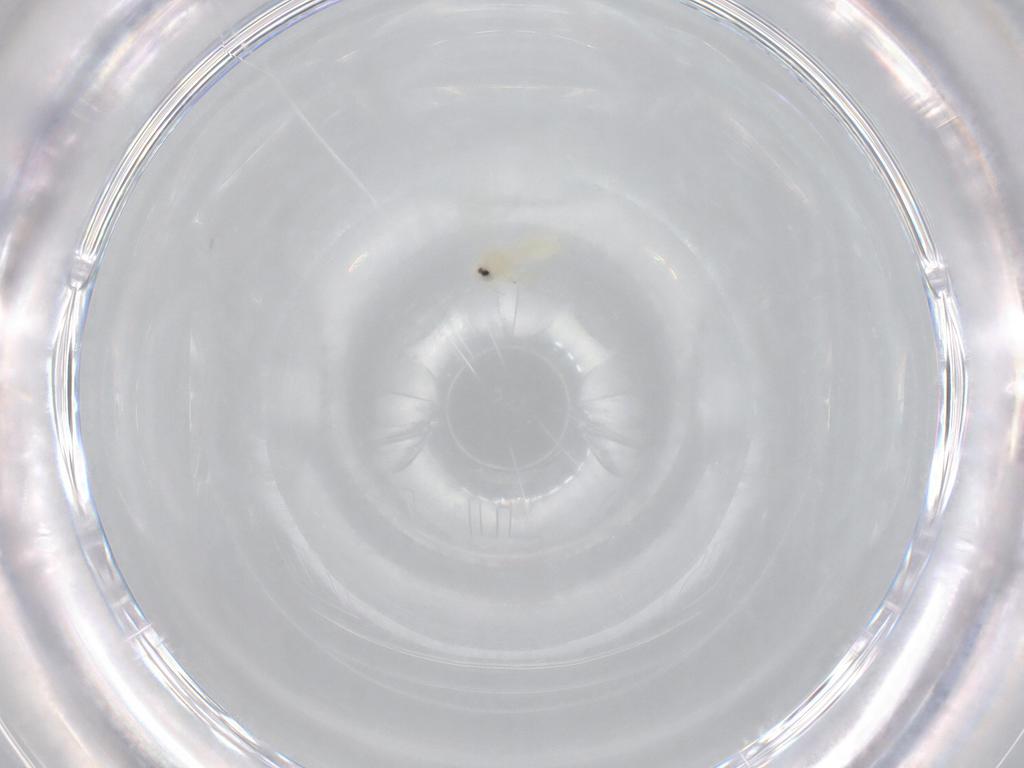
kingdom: Animalia
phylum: Arthropoda
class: Insecta
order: Hemiptera
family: Aleyrodidae
